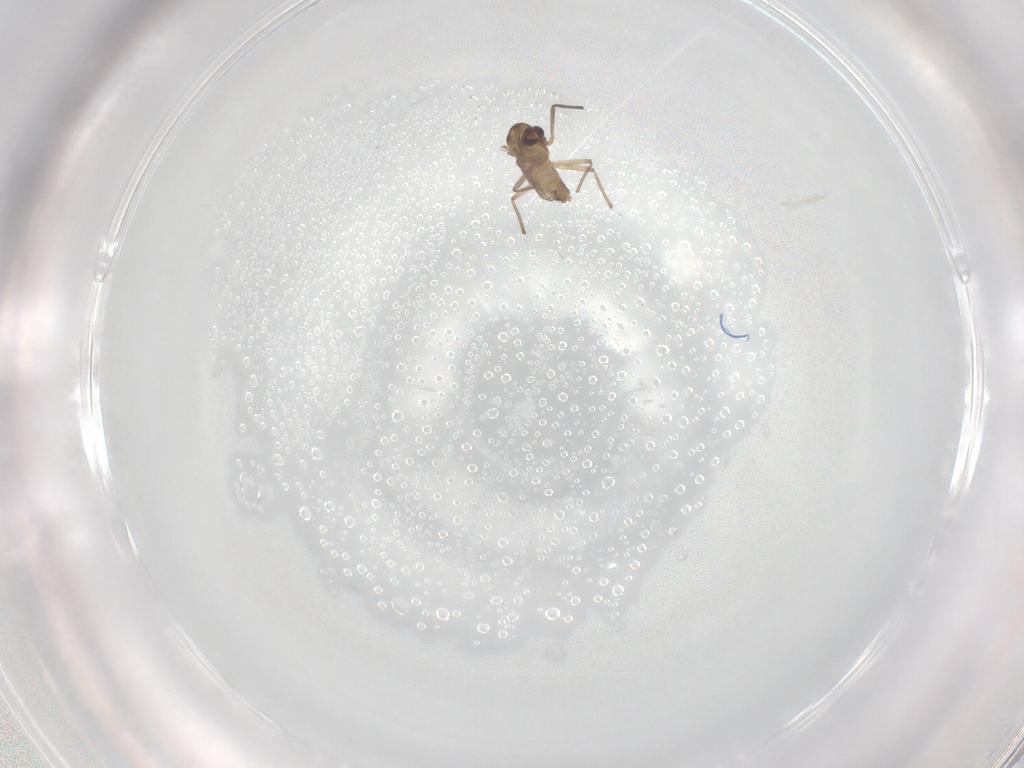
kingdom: Animalia
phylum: Arthropoda
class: Insecta
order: Diptera
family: Chironomidae
